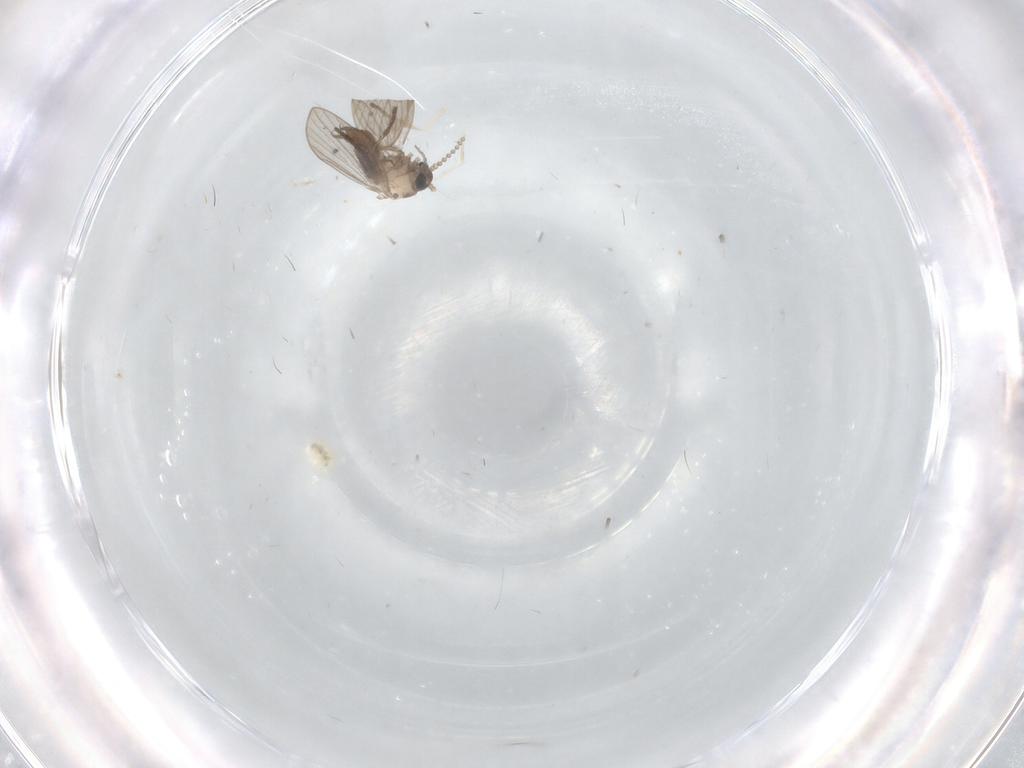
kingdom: Animalia
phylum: Arthropoda
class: Insecta
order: Diptera
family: Psychodidae
